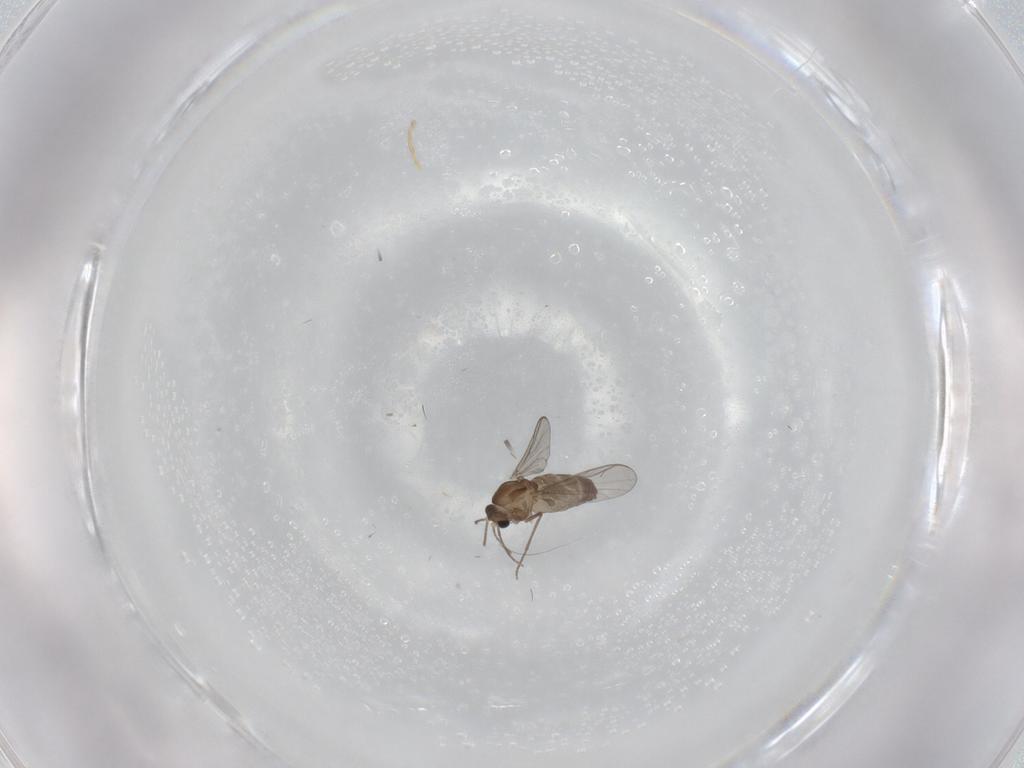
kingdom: Animalia
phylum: Arthropoda
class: Insecta
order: Diptera
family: Chironomidae
